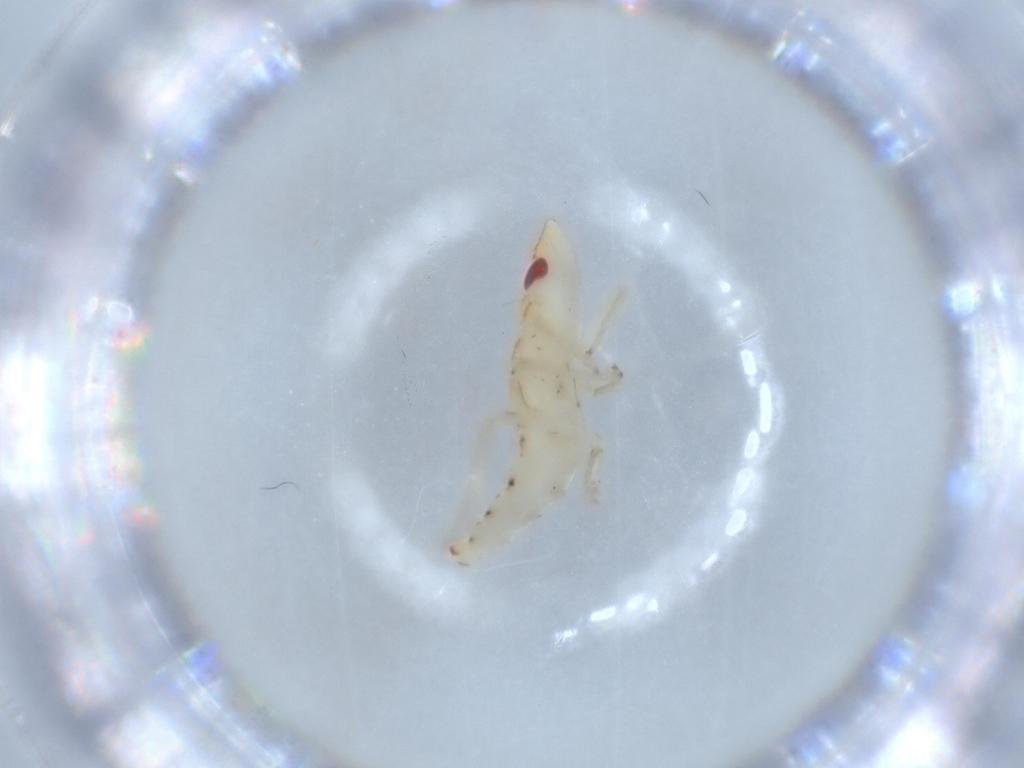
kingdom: Animalia
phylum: Arthropoda
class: Insecta
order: Hemiptera
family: Tropiduchidae
